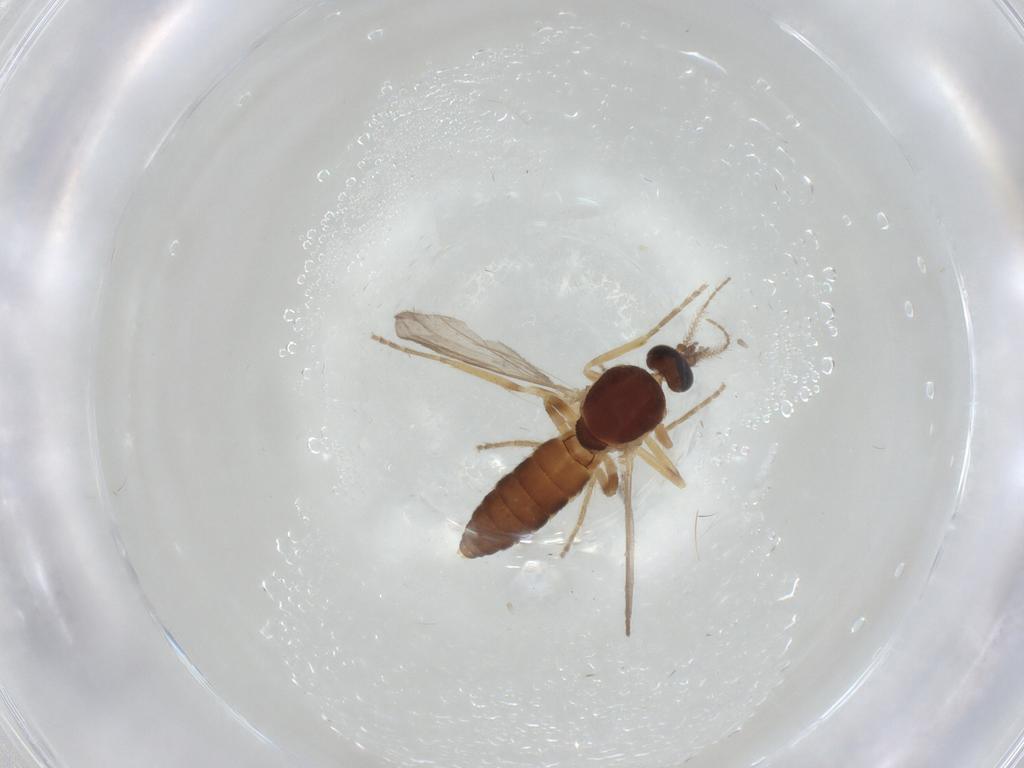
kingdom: Animalia
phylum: Arthropoda
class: Insecta
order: Diptera
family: Ceratopogonidae
